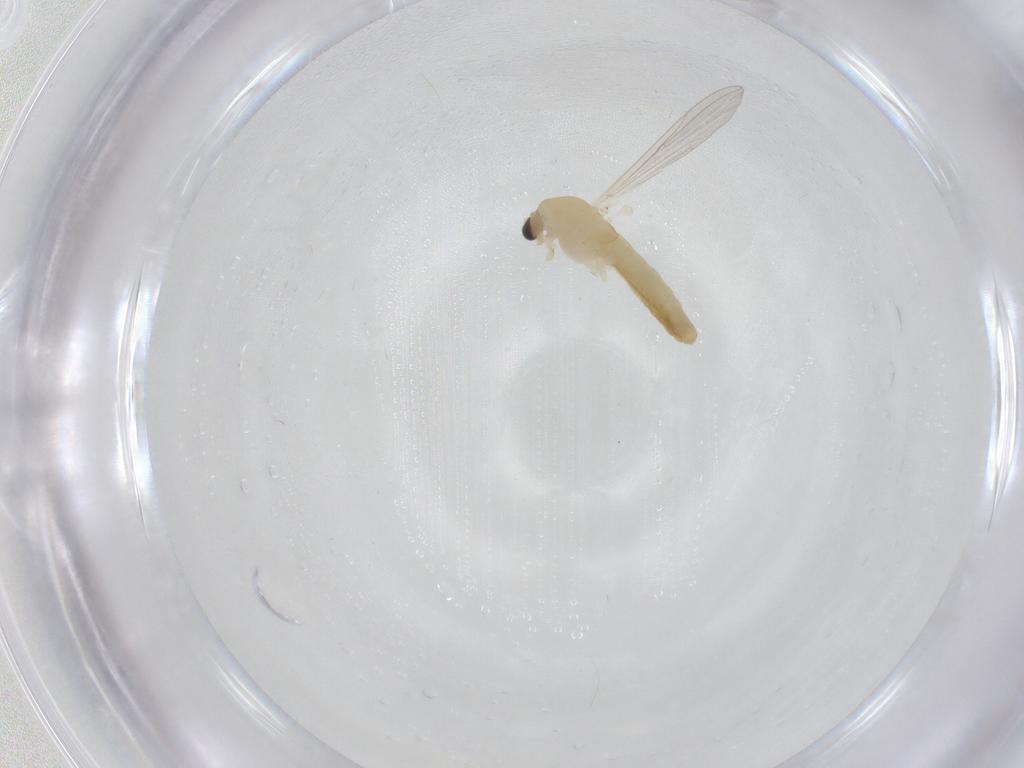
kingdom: Animalia
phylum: Arthropoda
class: Insecta
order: Diptera
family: Chironomidae
